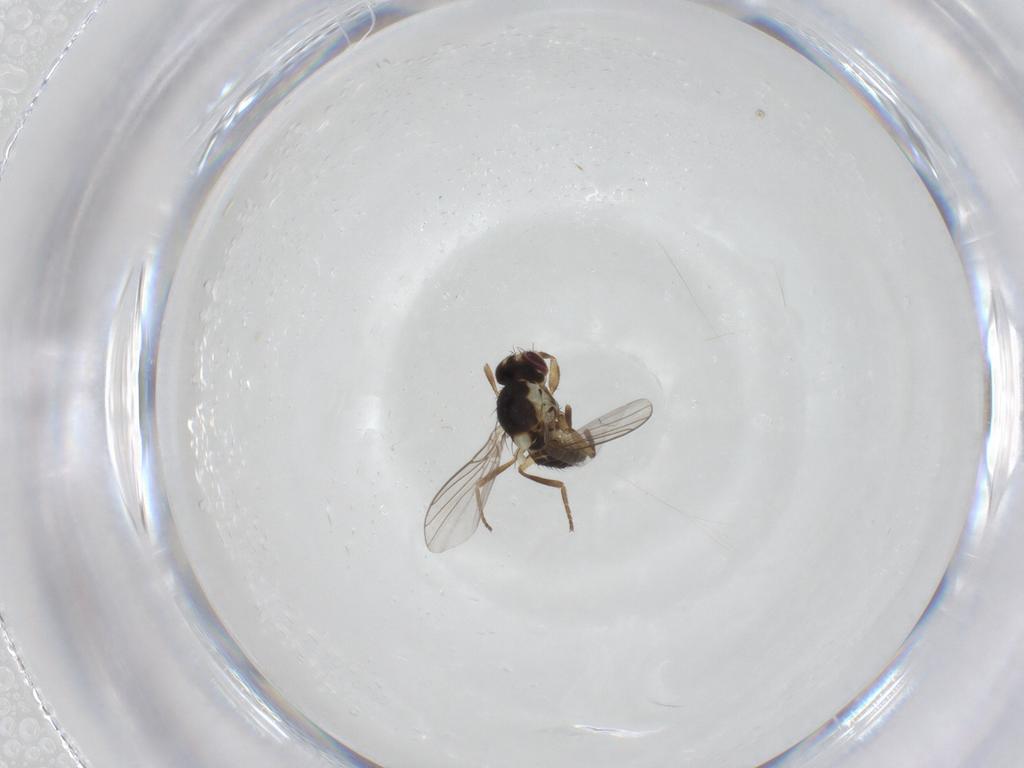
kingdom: Animalia
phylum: Arthropoda
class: Insecta
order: Diptera
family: Agromyzidae
